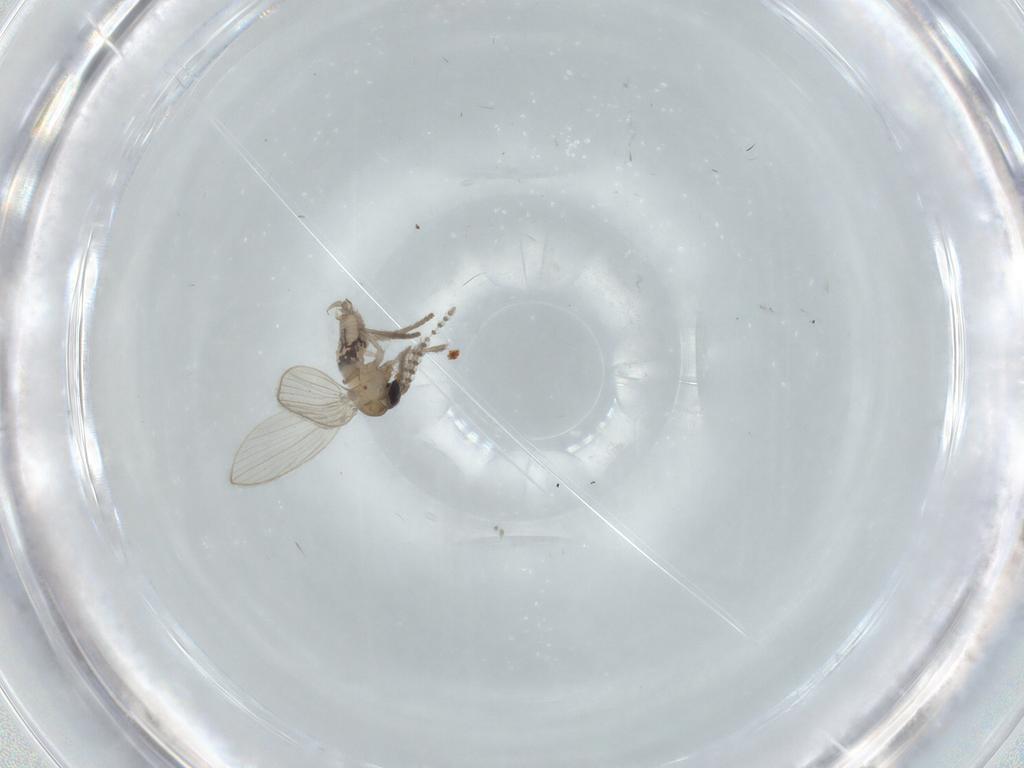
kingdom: Animalia
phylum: Arthropoda
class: Insecta
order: Diptera
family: Psychodidae
